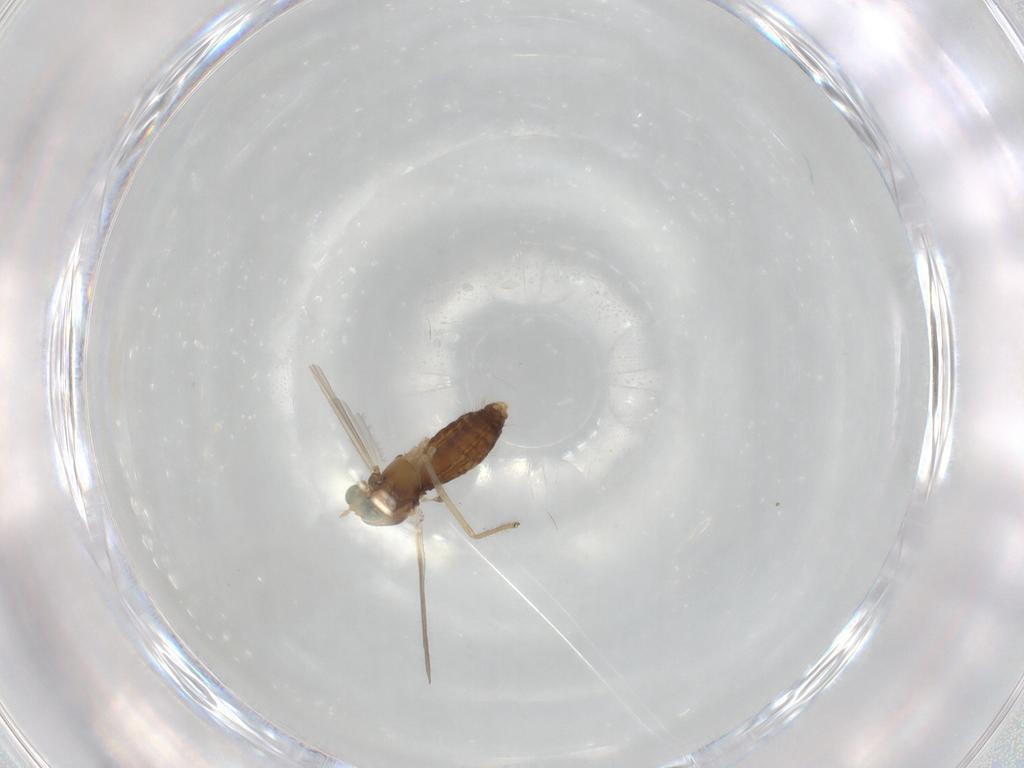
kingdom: Animalia
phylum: Arthropoda
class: Insecta
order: Diptera
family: Chironomidae
